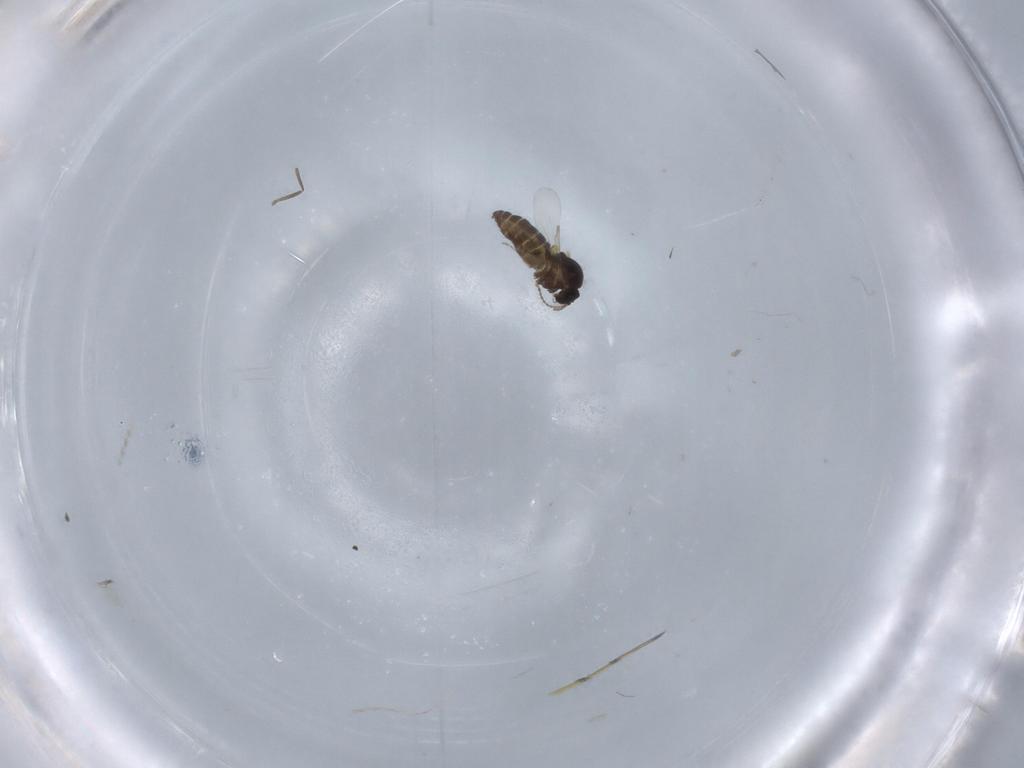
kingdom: Animalia
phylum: Arthropoda
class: Insecta
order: Diptera
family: Ceratopogonidae
